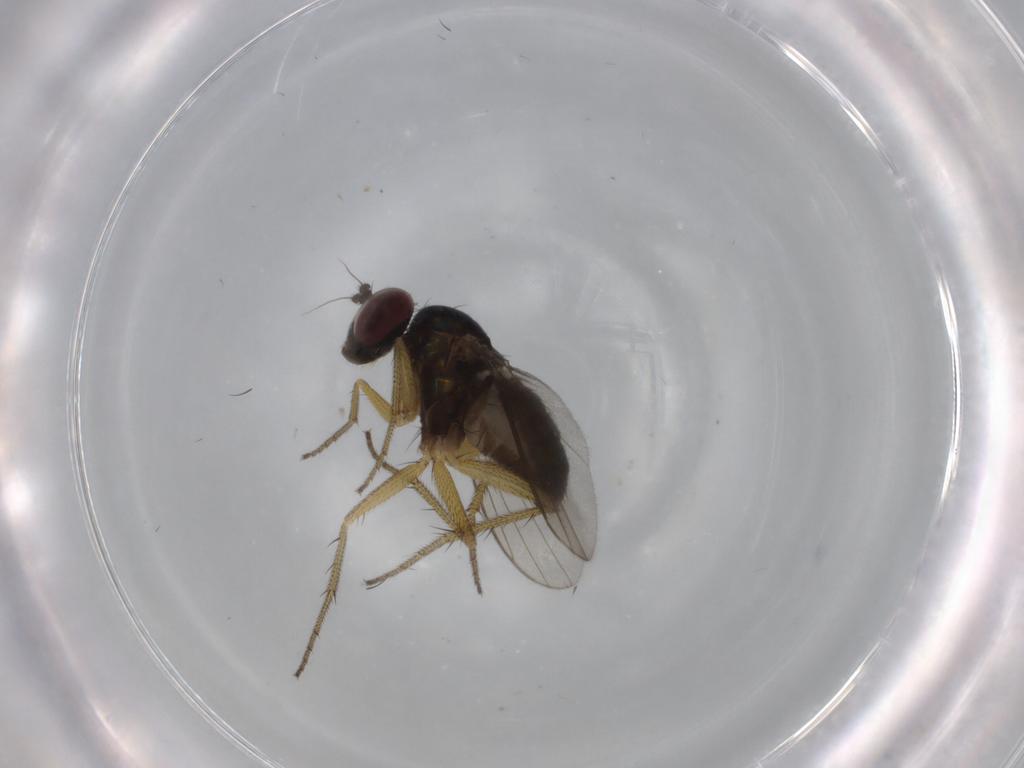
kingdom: Animalia
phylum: Arthropoda
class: Insecta
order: Diptera
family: Dolichopodidae
